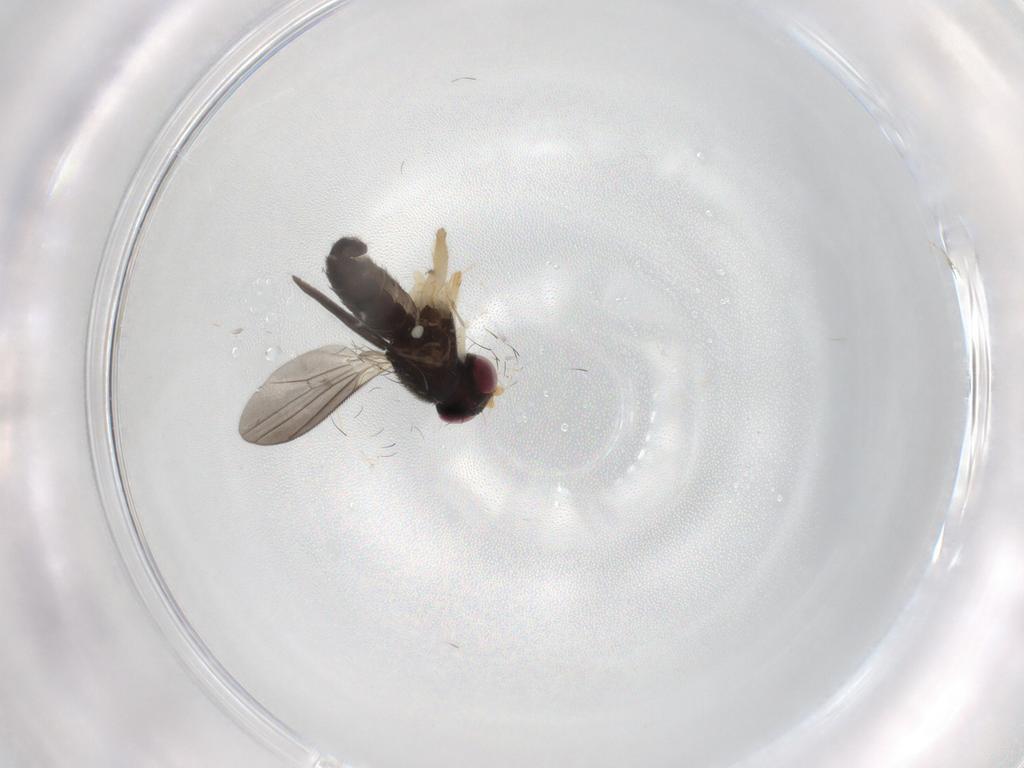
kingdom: Animalia
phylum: Arthropoda
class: Insecta
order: Diptera
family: Clusiidae
